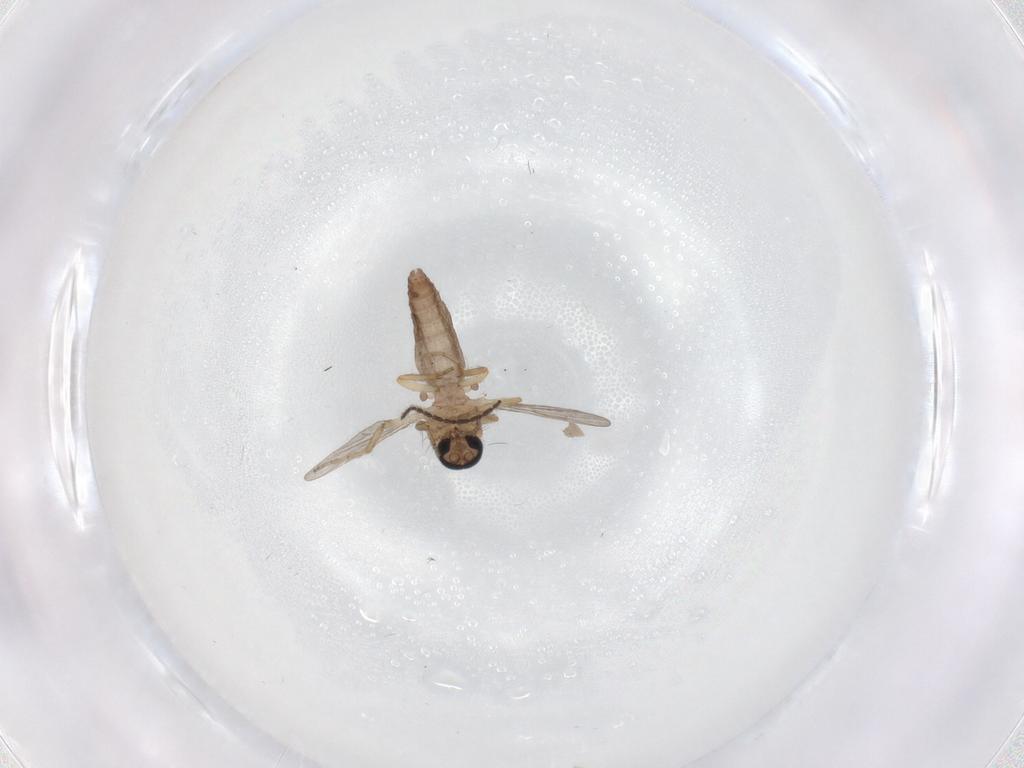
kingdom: Animalia
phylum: Arthropoda
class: Insecta
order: Diptera
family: Ceratopogonidae
